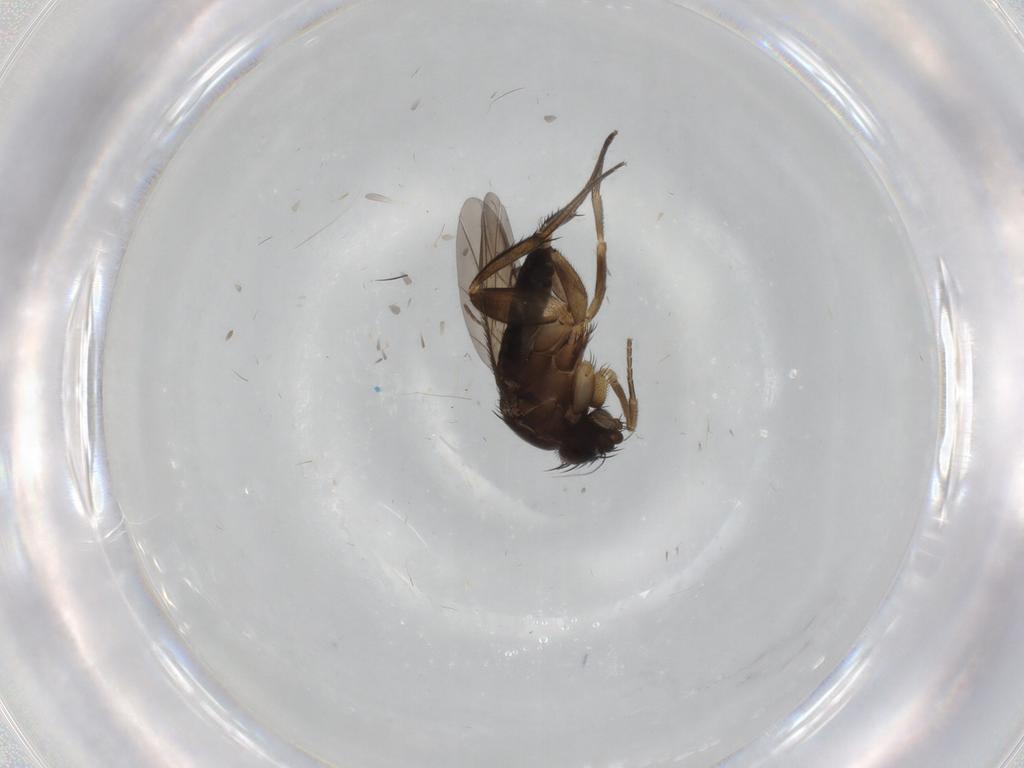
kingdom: Animalia
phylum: Arthropoda
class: Insecta
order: Diptera
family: Phoridae
